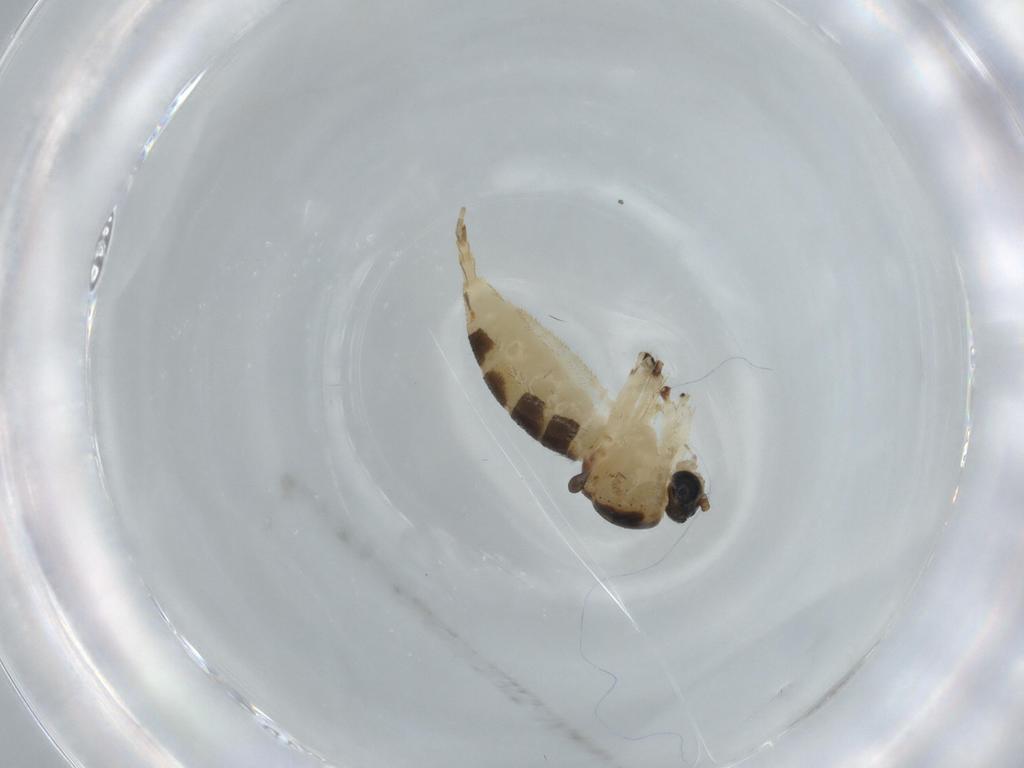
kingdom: Animalia
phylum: Arthropoda
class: Insecta
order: Diptera
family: Sciaridae
